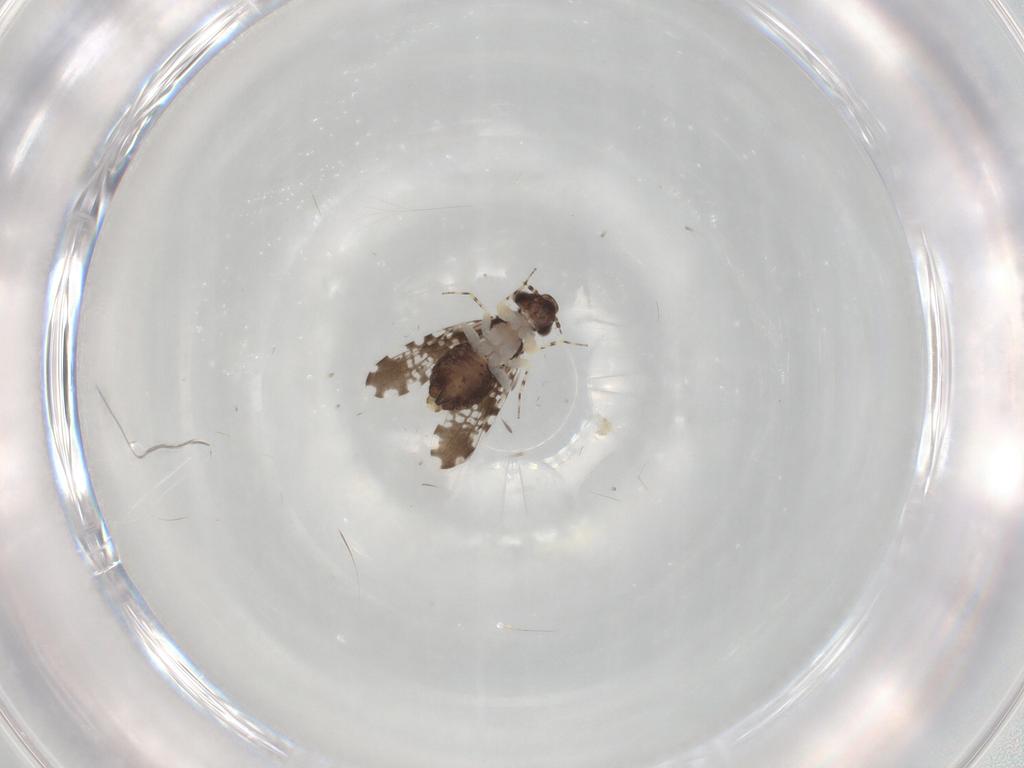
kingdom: Animalia
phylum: Arthropoda
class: Insecta
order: Psocodea
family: Psoquillidae
